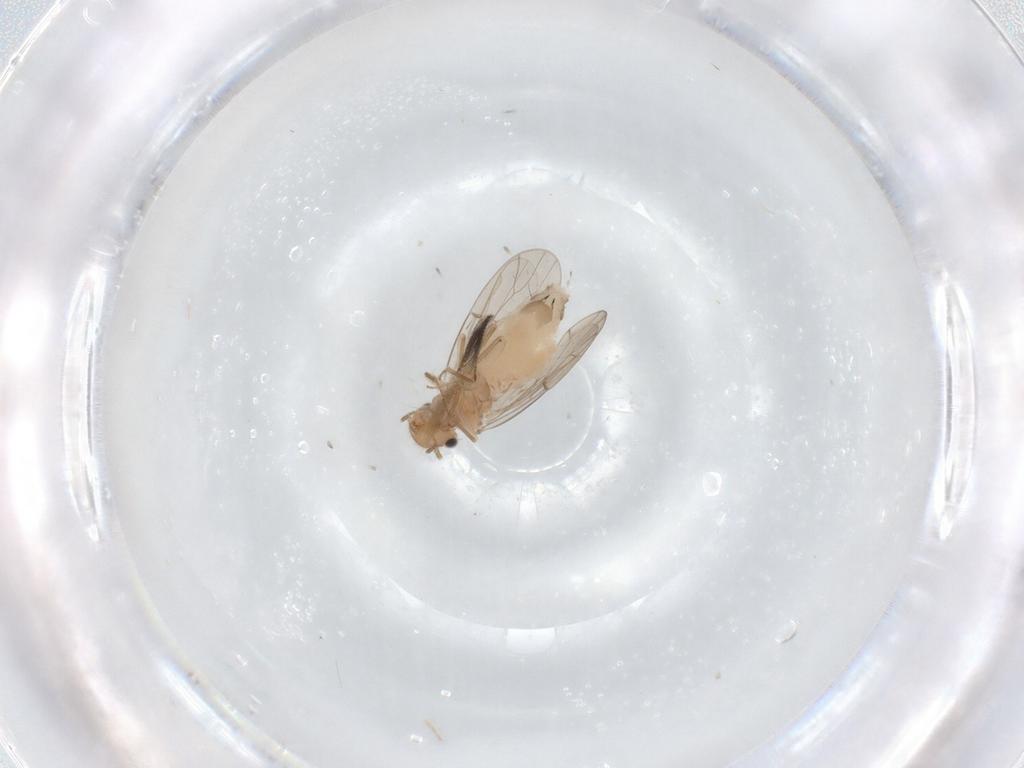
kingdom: Animalia
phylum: Arthropoda
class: Insecta
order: Psocodea
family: Ectopsocidae
